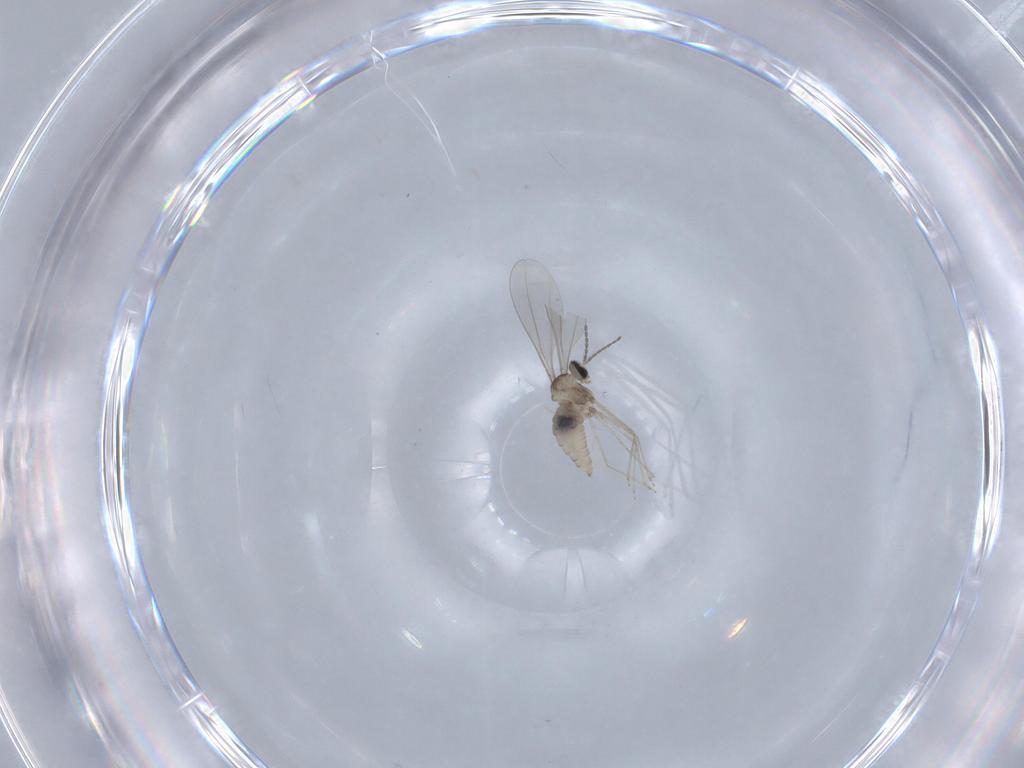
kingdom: Animalia
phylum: Arthropoda
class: Insecta
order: Diptera
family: Cecidomyiidae
